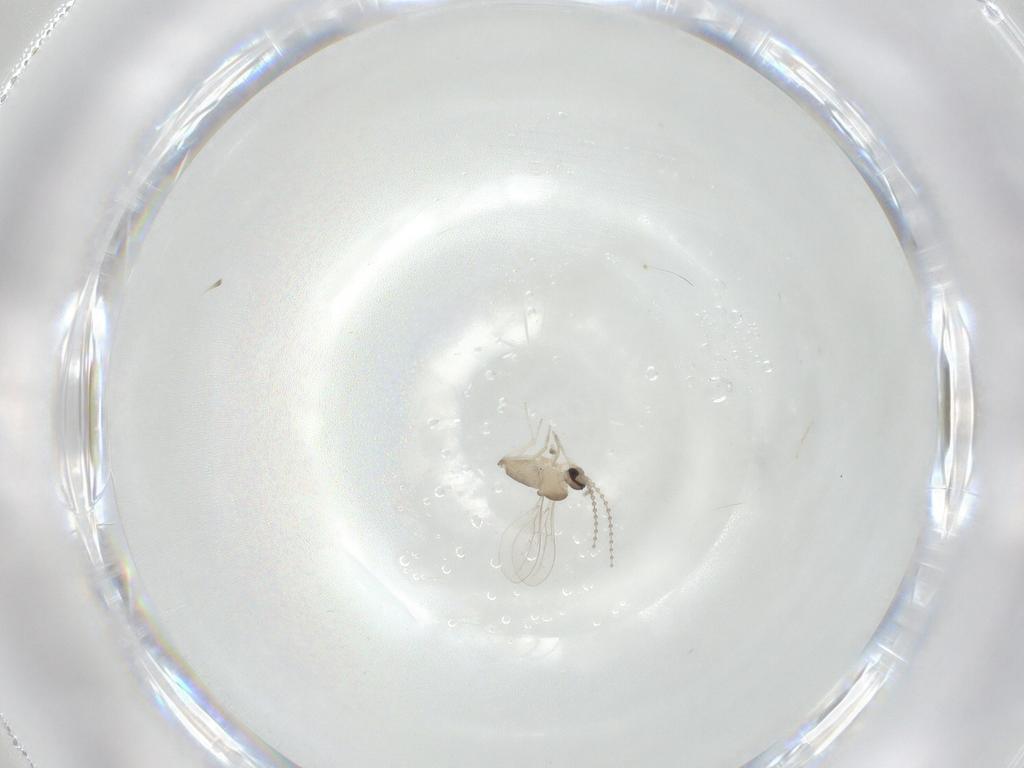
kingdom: Animalia
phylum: Arthropoda
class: Insecta
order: Diptera
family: Cecidomyiidae
